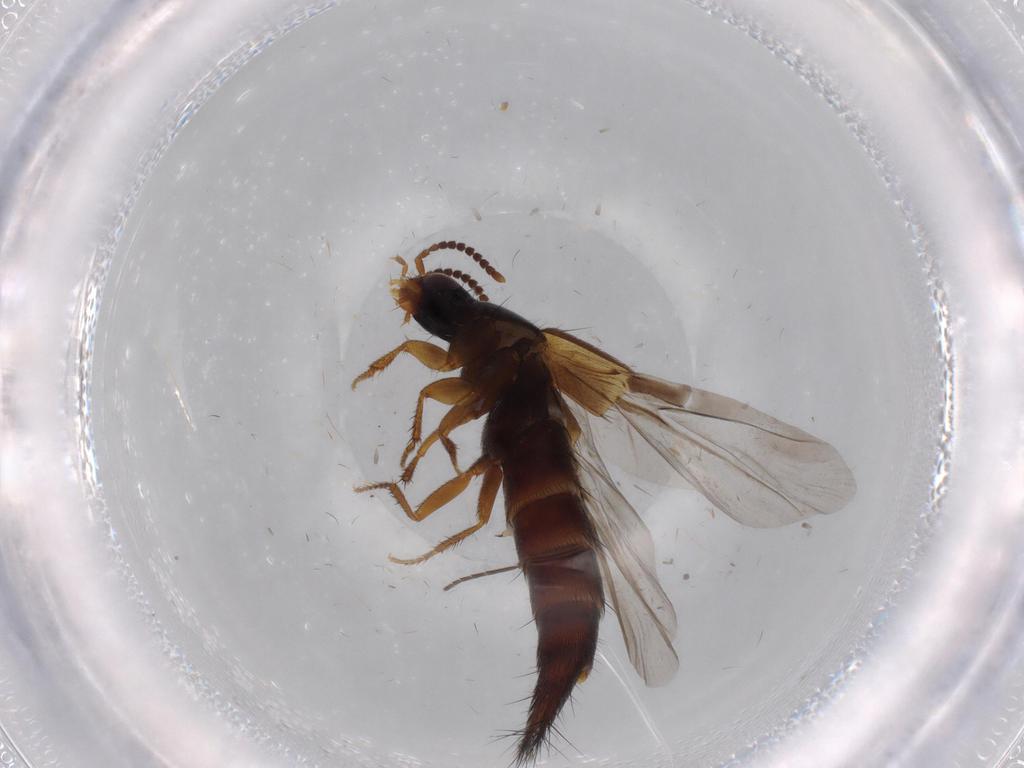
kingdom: Animalia
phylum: Arthropoda
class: Insecta
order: Coleoptera
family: Staphylinidae
